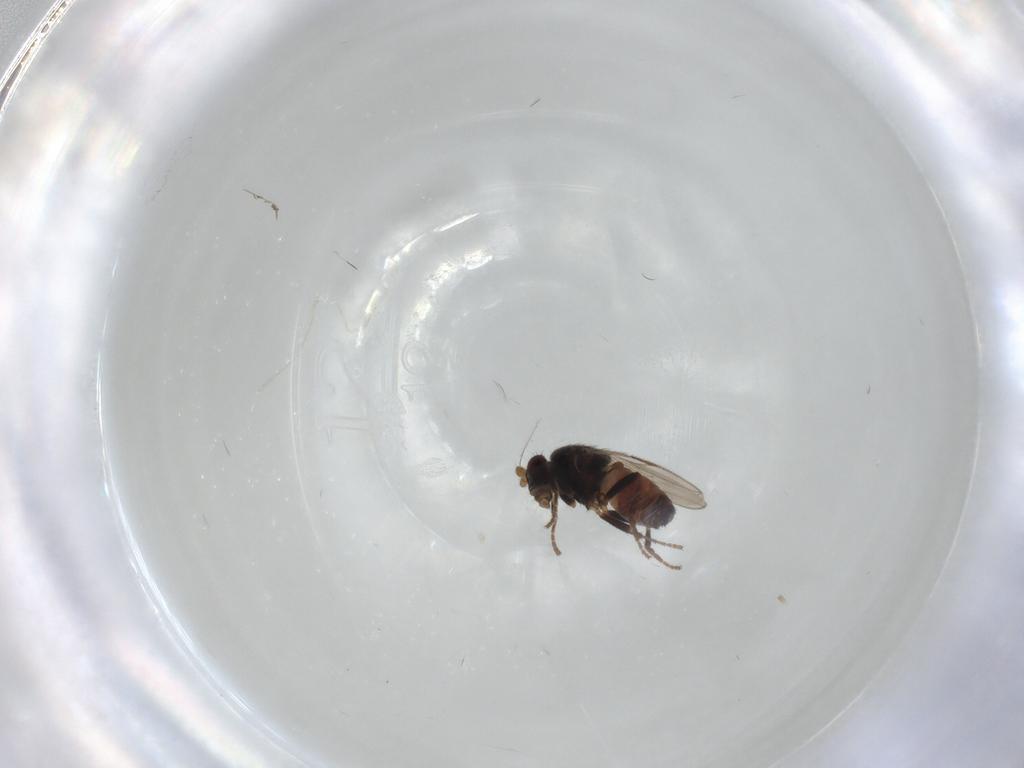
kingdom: Animalia
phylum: Arthropoda
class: Insecta
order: Diptera
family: Cecidomyiidae
